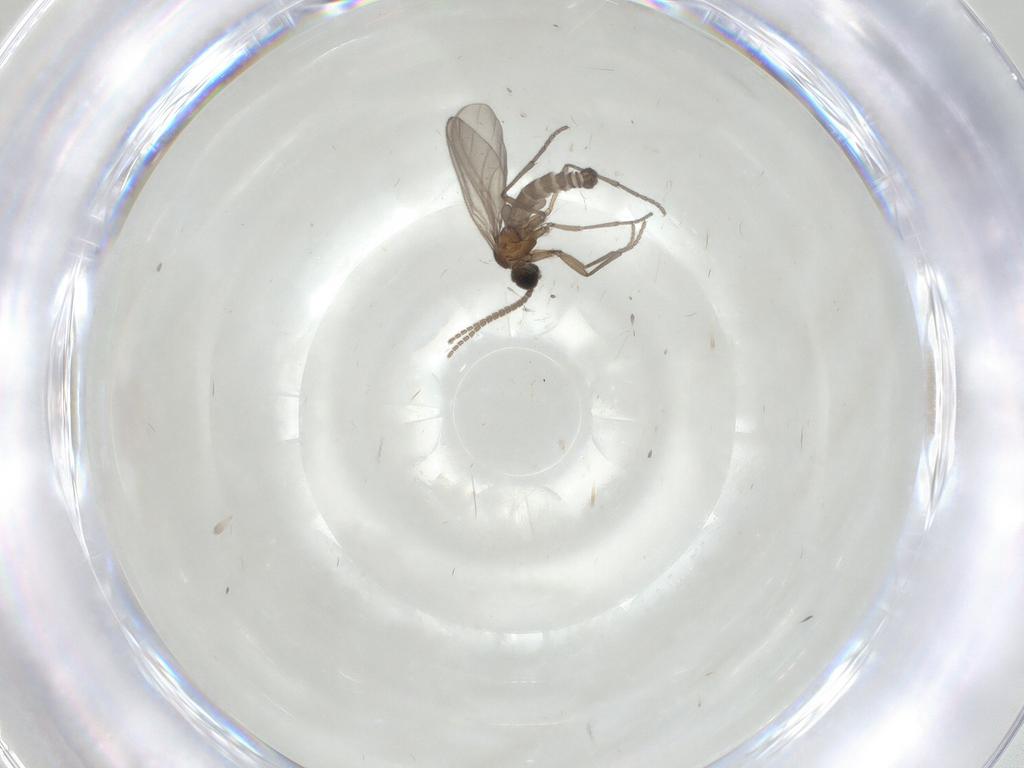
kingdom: Animalia
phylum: Arthropoda
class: Insecta
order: Diptera
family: Sciaridae
